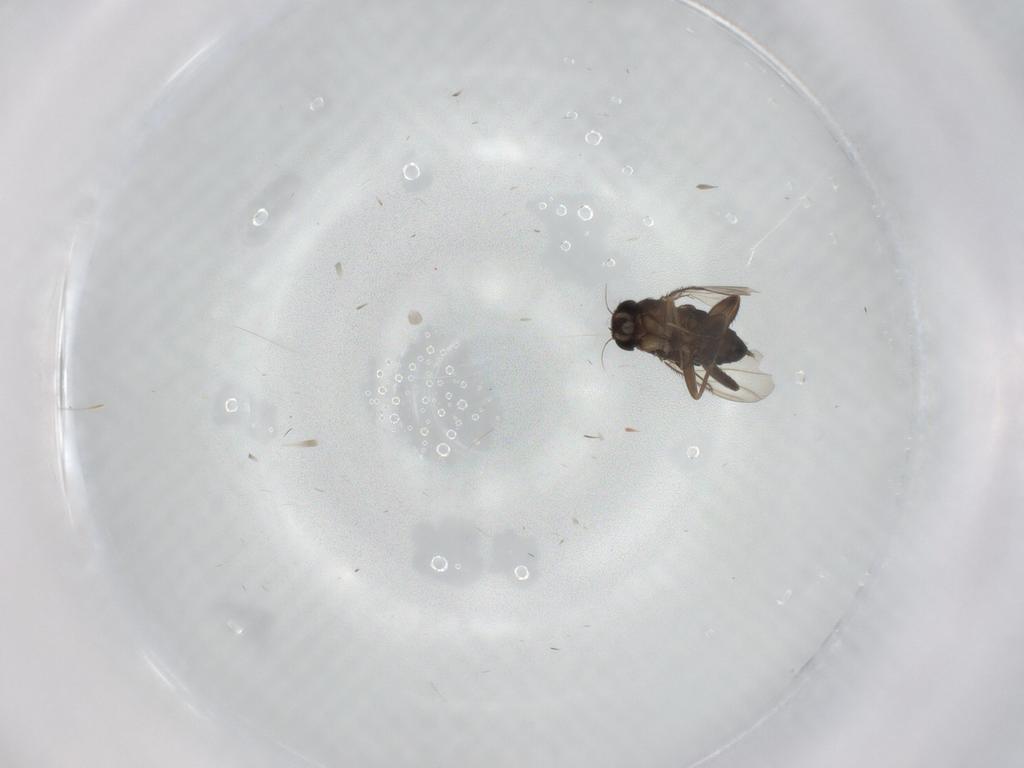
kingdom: Animalia
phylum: Arthropoda
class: Insecta
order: Diptera
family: Phoridae
